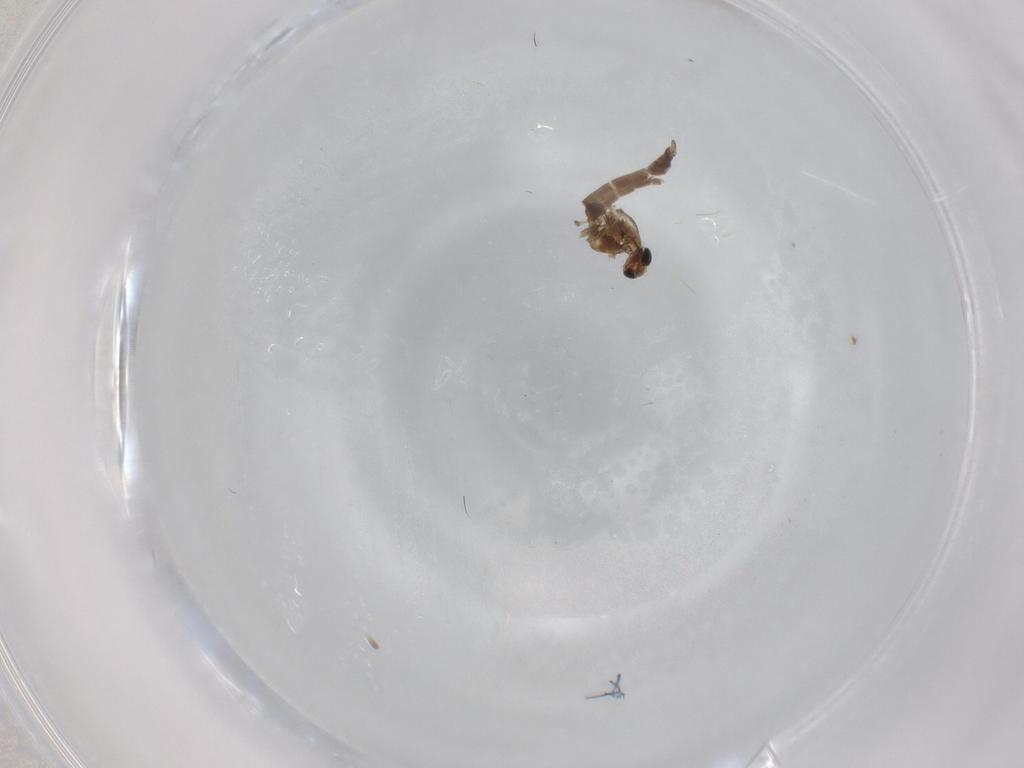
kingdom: Animalia
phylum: Arthropoda
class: Insecta
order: Diptera
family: Chironomidae
